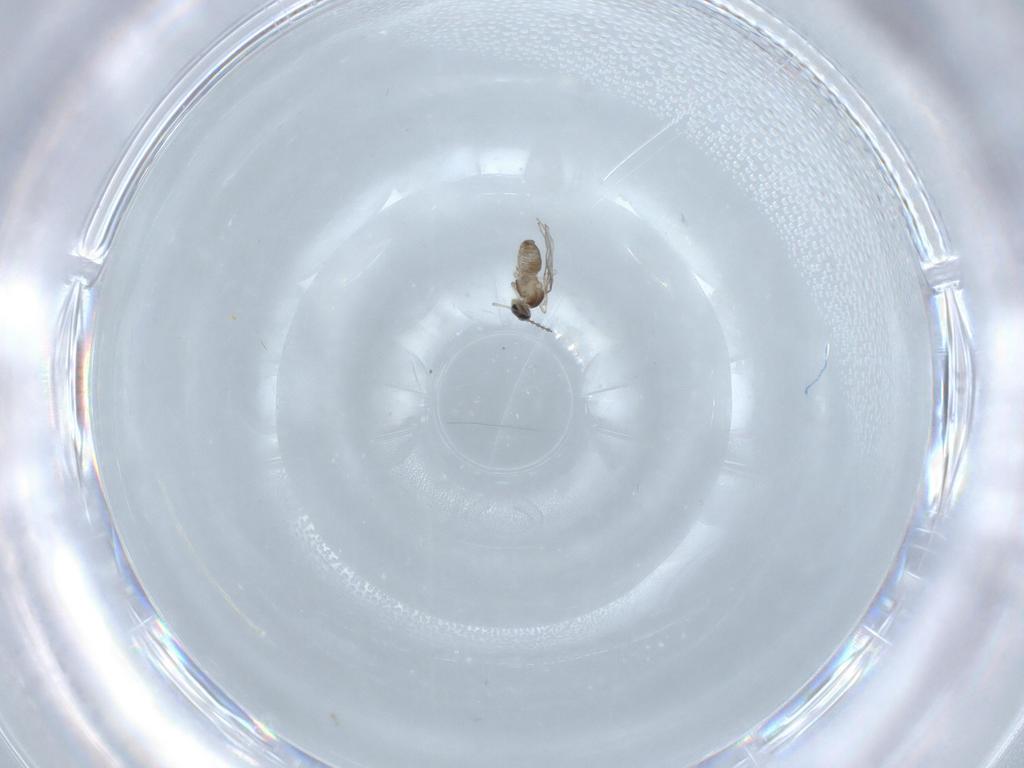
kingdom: Animalia
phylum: Arthropoda
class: Insecta
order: Diptera
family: Cecidomyiidae
